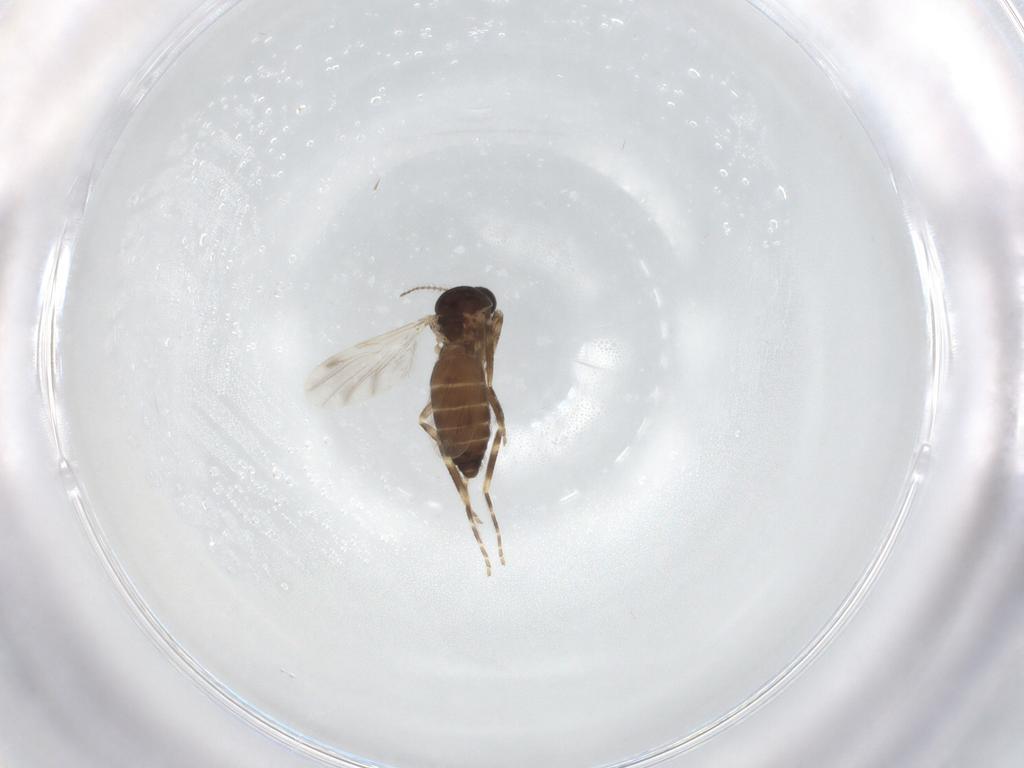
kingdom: Animalia
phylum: Arthropoda
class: Insecta
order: Diptera
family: Ceratopogonidae
